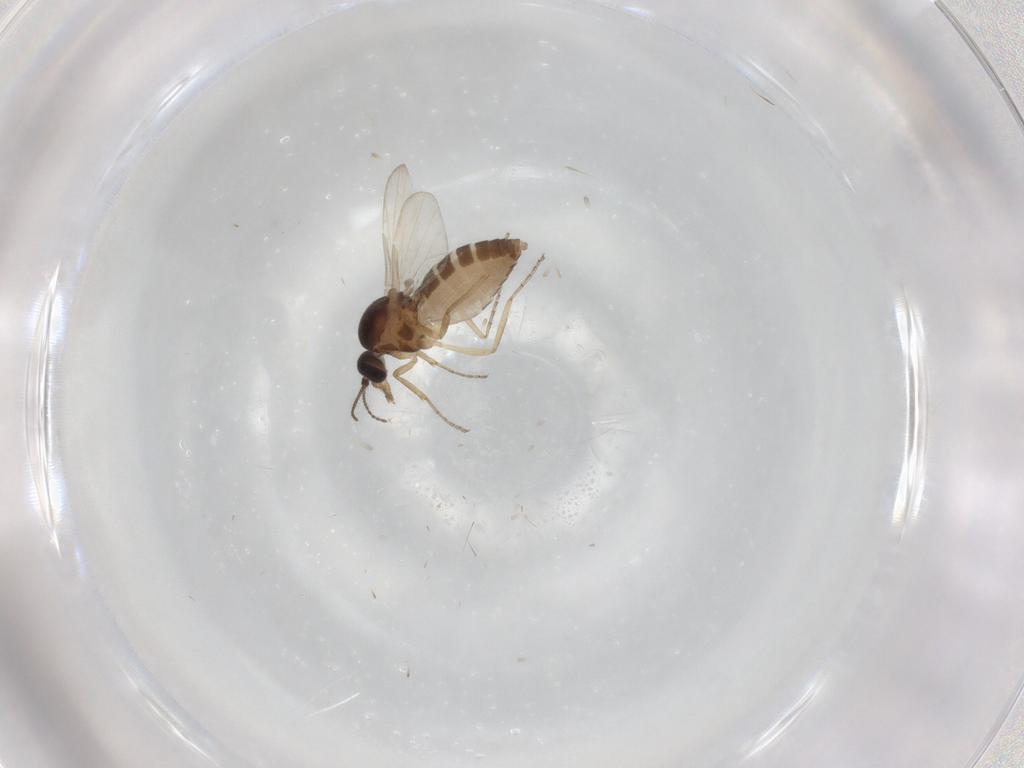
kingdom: Animalia
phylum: Arthropoda
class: Insecta
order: Diptera
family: Ceratopogonidae
